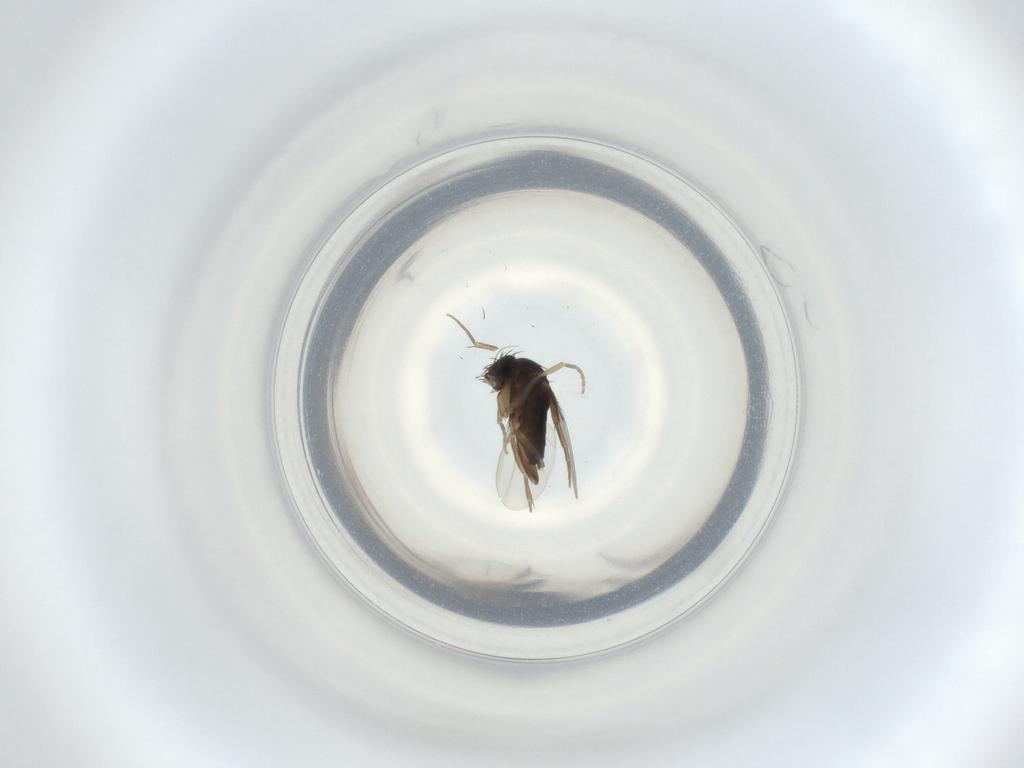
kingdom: Animalia
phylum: Arthropoda
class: Insecta
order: Diptera
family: Phoridae
